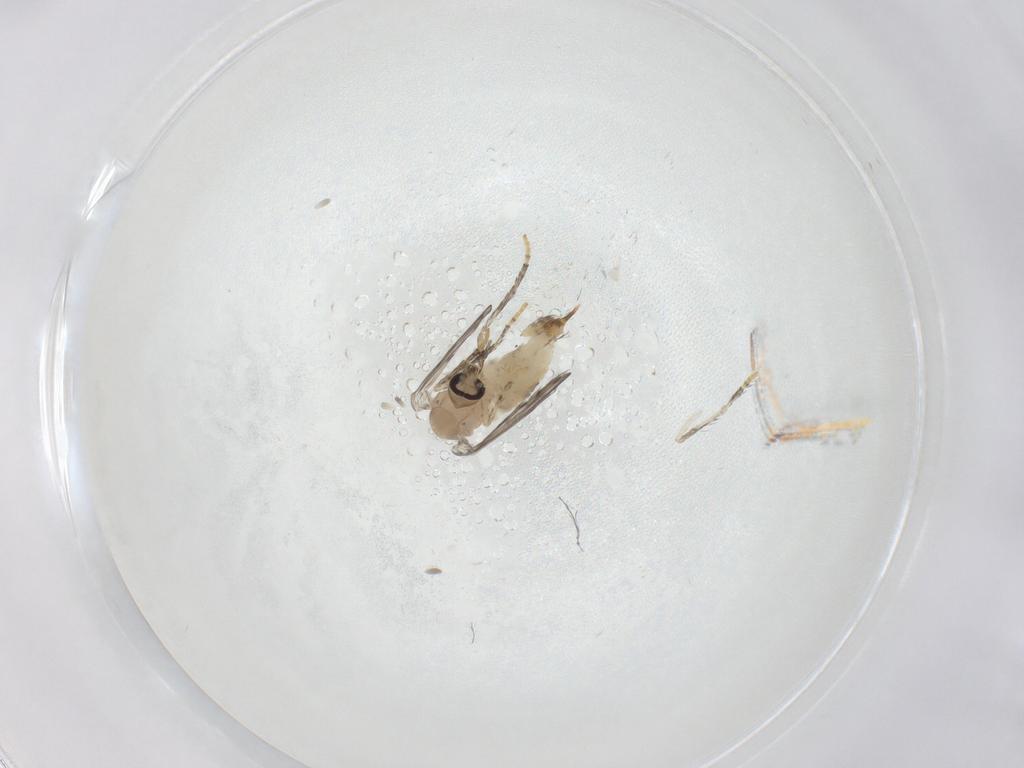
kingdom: Animalia
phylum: Arthropoda
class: Insecta
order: Diptera
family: Psychodidae
